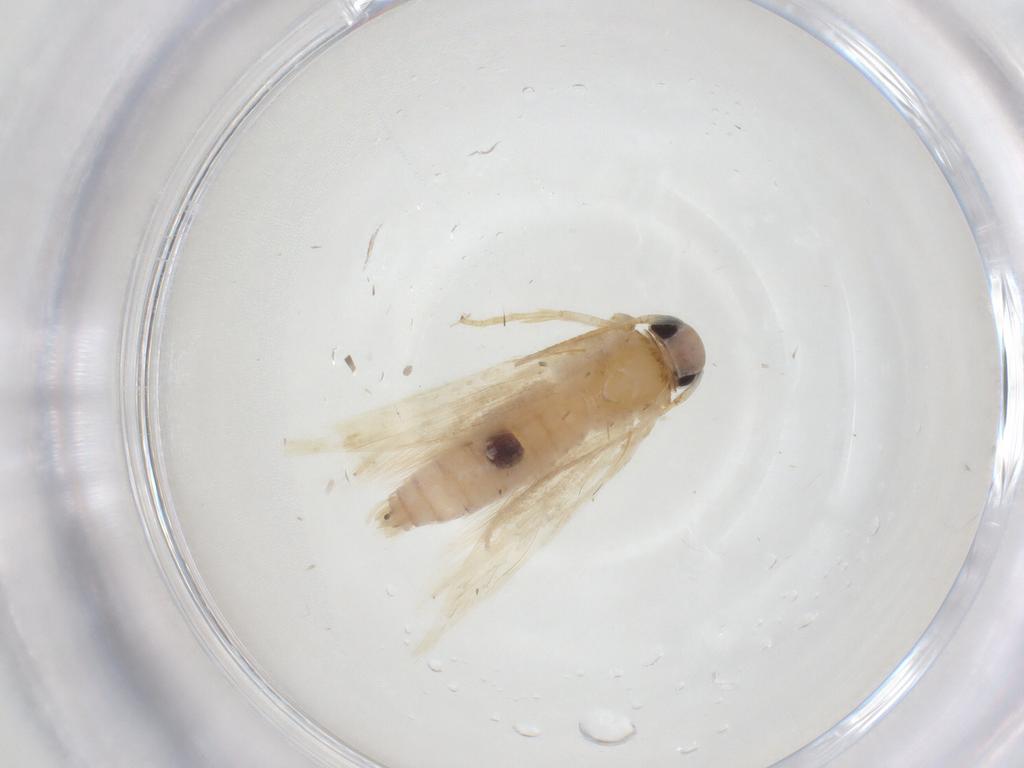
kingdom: Animalia
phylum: Arthropoda
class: Insecta
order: Lepidoptera
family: Erebidae
